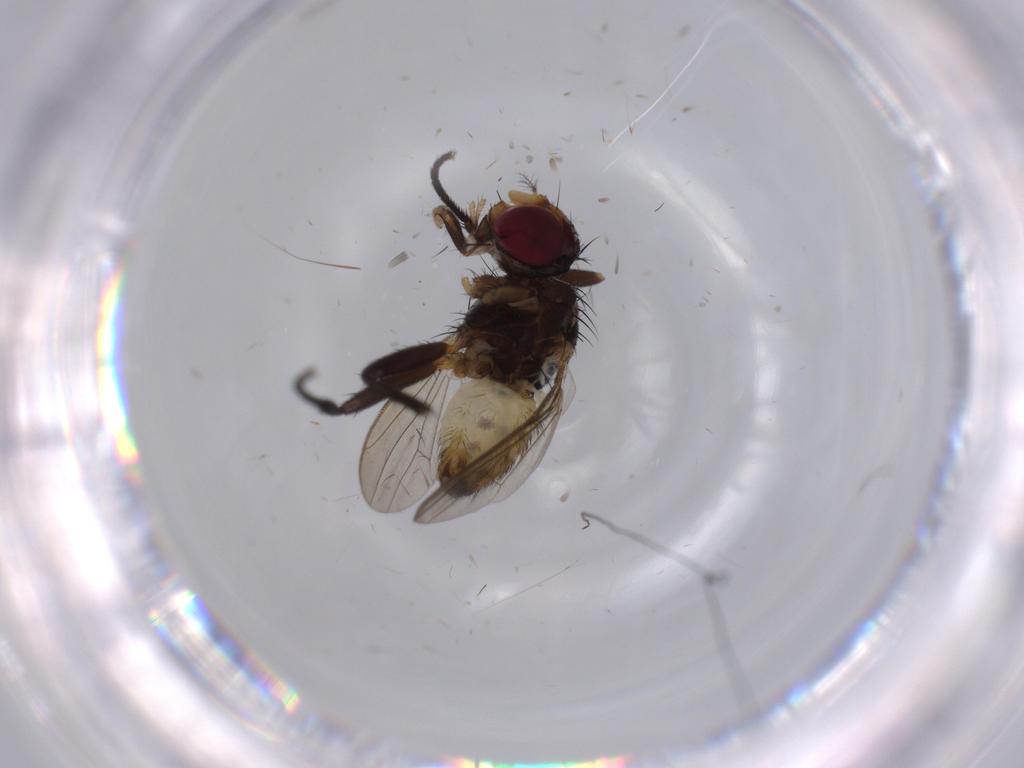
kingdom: Animalia
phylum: Arthropoda
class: Insecta
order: Diptera
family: Anthomyiidae
